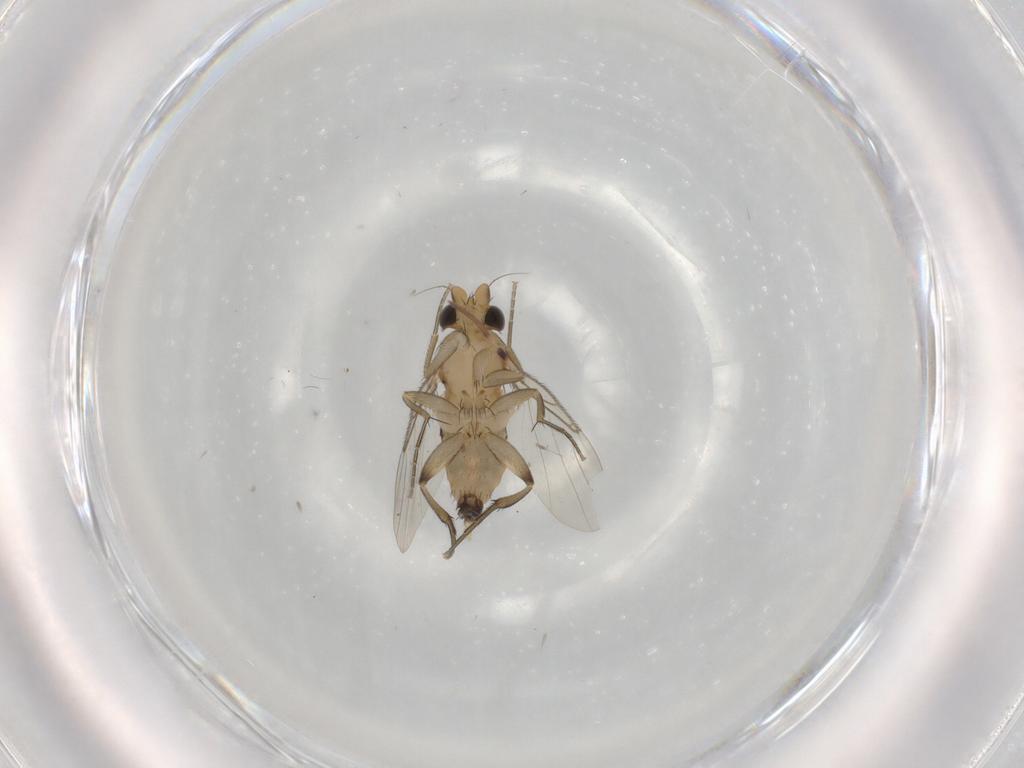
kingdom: Animalia
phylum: Arthropoda
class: Insecta
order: Diptera
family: Phoridae
